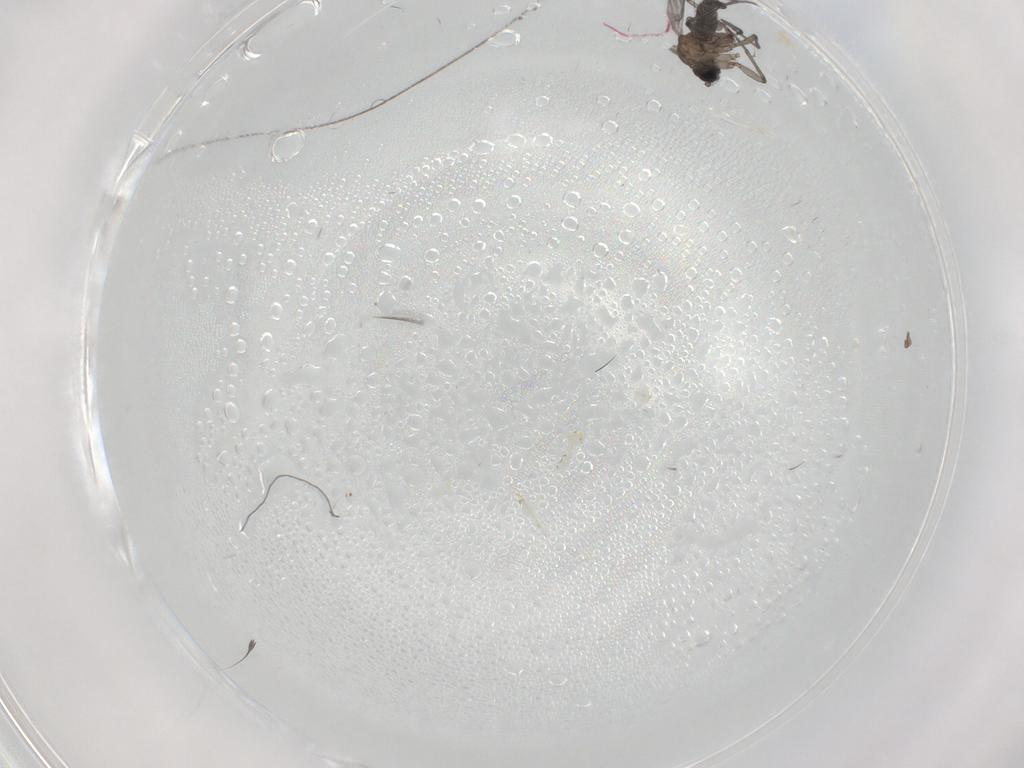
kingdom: Animalia
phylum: Arthropoda
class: Insecta
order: Diptera
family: Sciaridae
